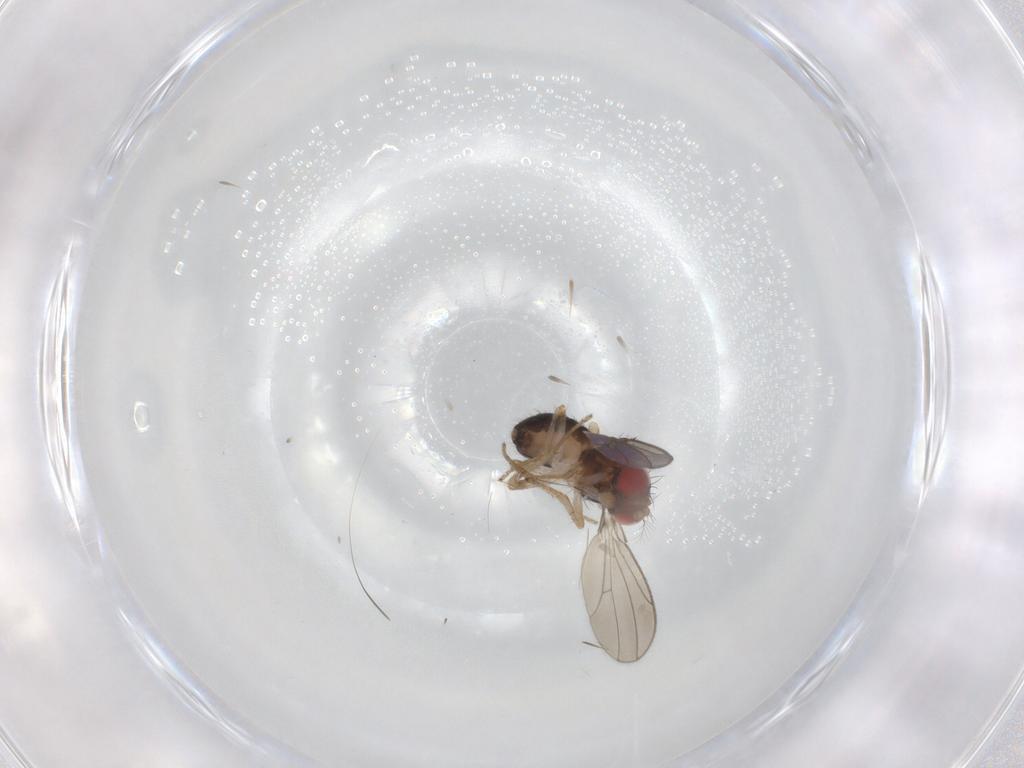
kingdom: Animalia
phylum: Arthropoda
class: Insecta
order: Diptera
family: Drosophilidae
